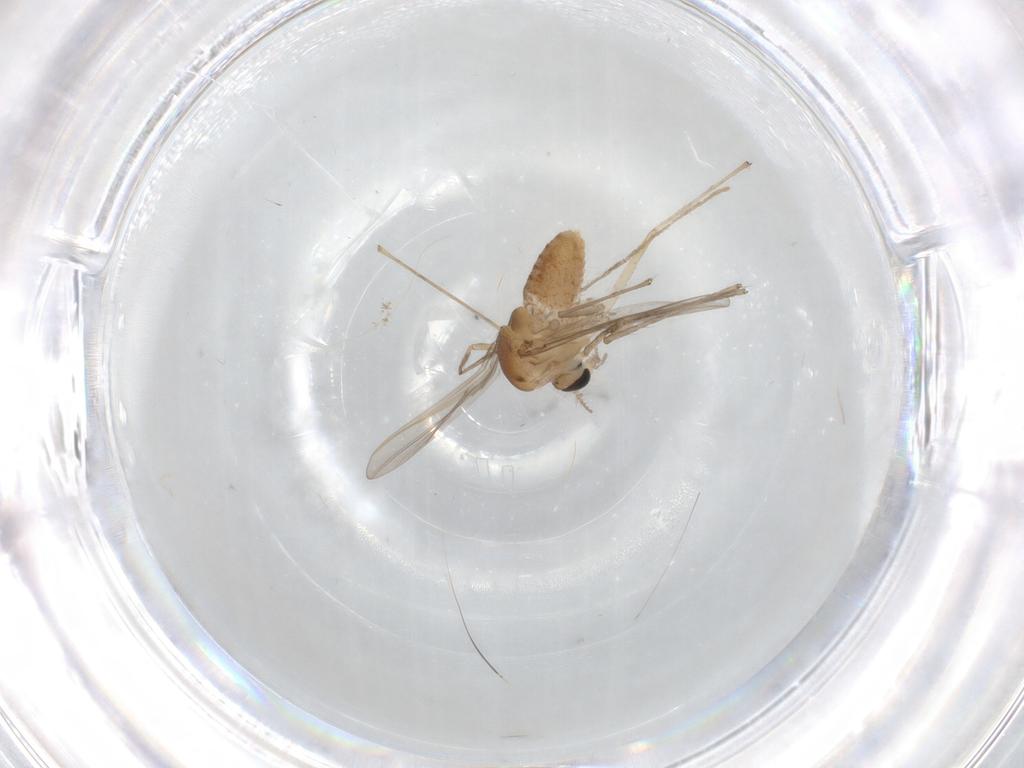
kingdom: Animalia
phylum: Arthropoda
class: Insecta
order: Diptera
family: Chironomidae
